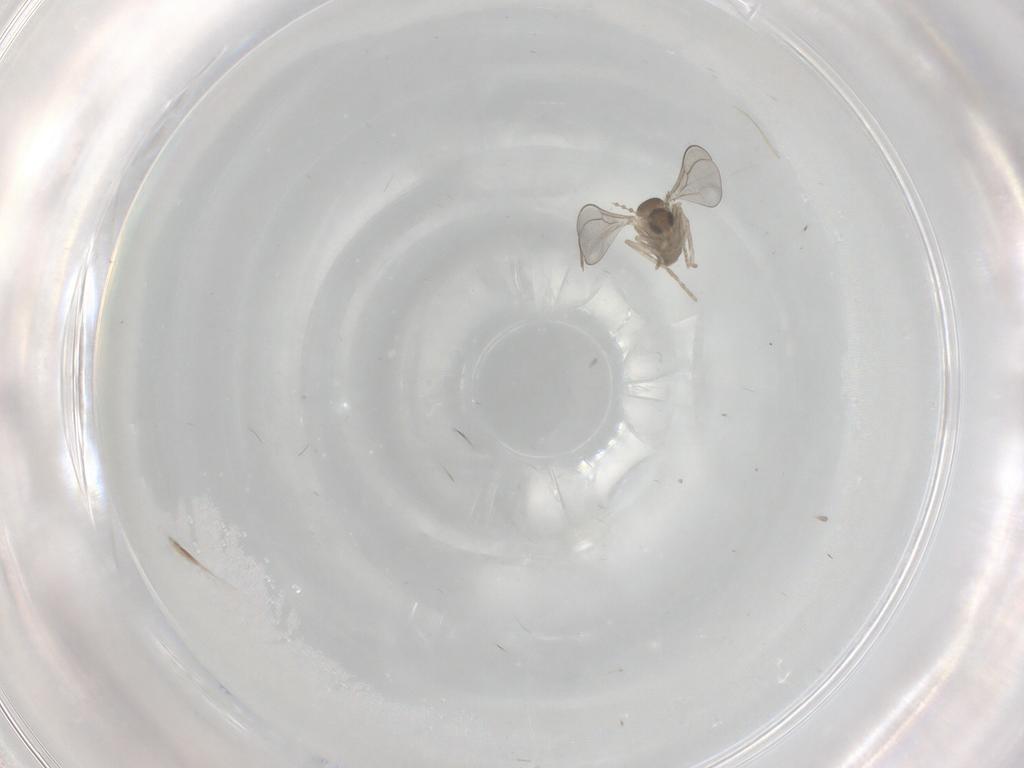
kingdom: Animalia
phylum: Arthropoda
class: Insecta
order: Diptera
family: Cecidomyiidae
